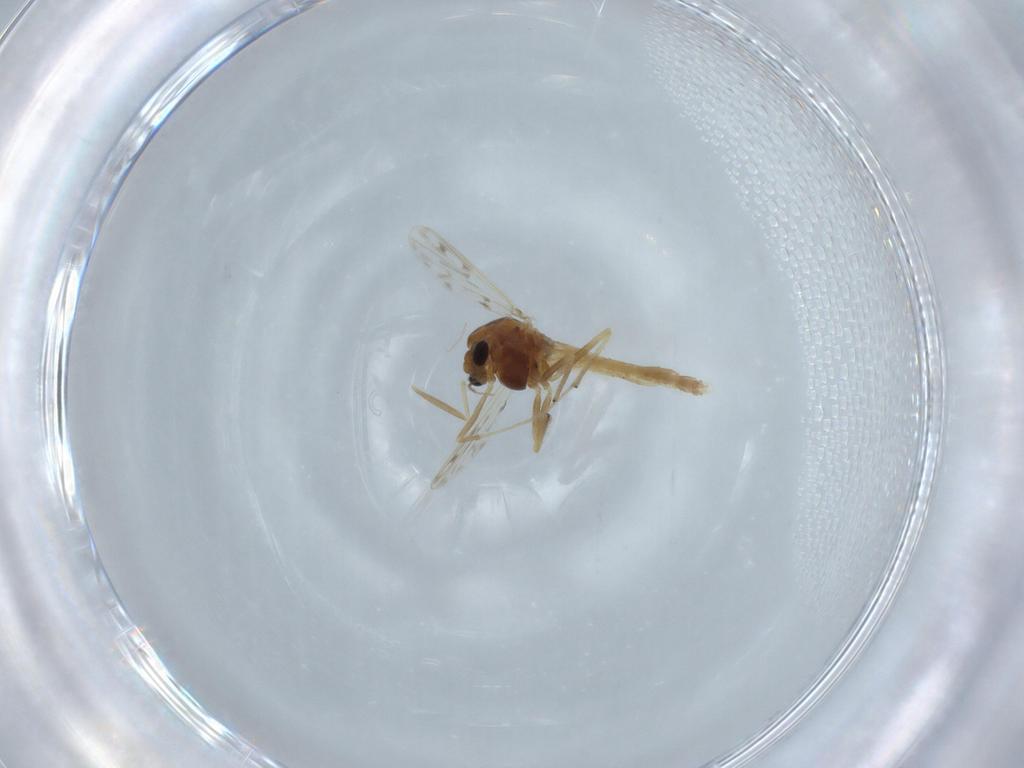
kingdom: Animalia
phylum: Arthropoda
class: Insecta
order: Diptera
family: Chironomidae
